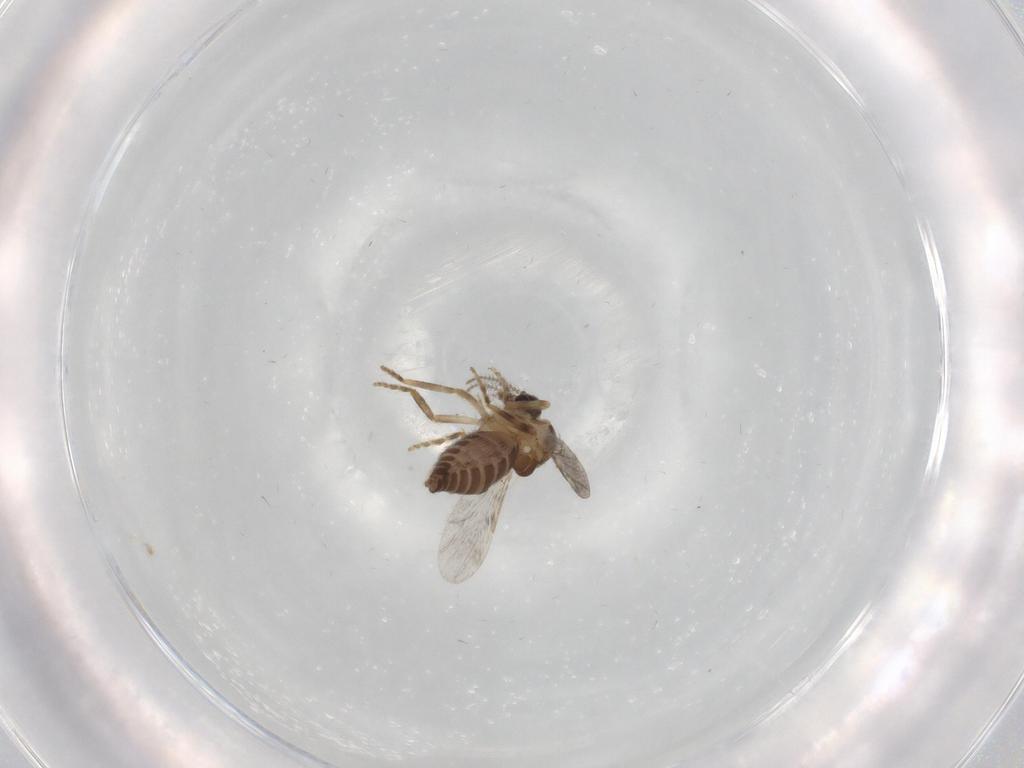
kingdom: Animalia
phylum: Arthropoda
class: Insecta
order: Diptera
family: Ceratopogonidae
